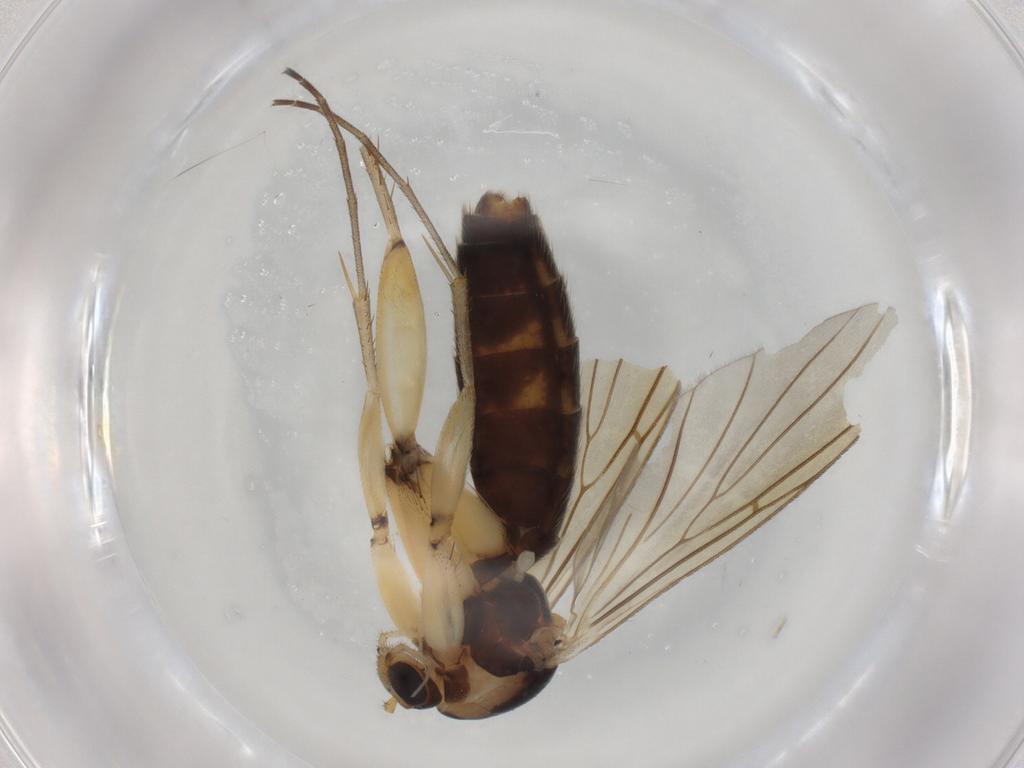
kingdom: Animalia
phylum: Arthropoda
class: Insecta
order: Diptera
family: Mycetophilidae
